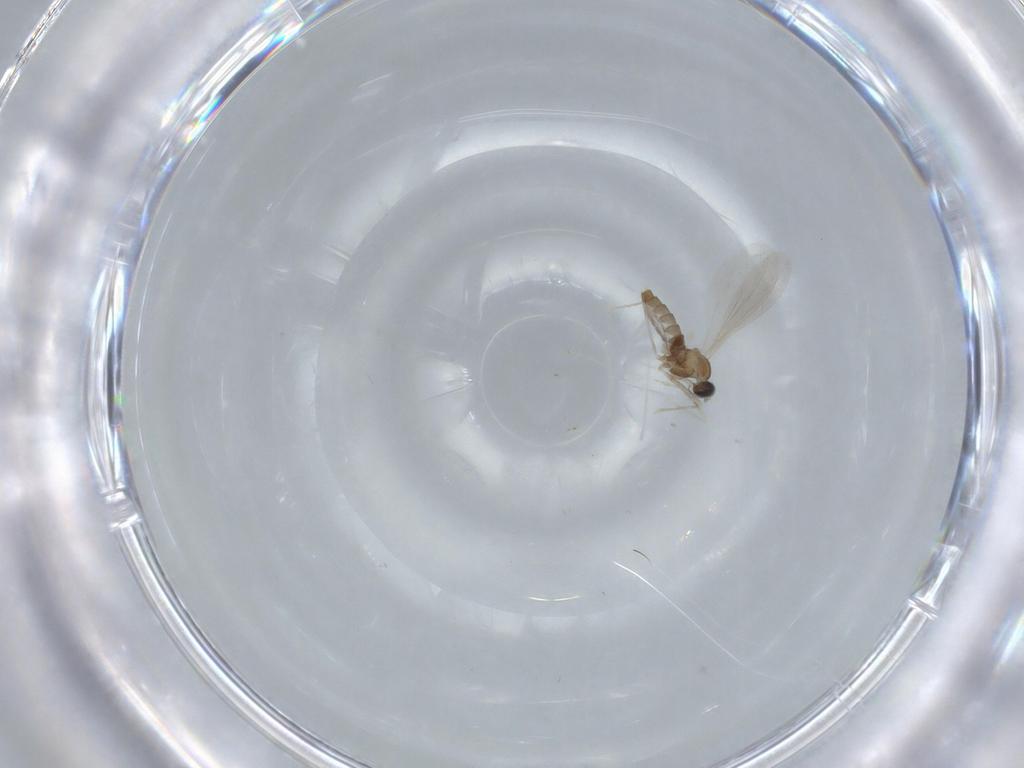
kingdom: Animalia
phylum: Arthropoda
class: Insecta
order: Diptera
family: Cecidomyiidae
